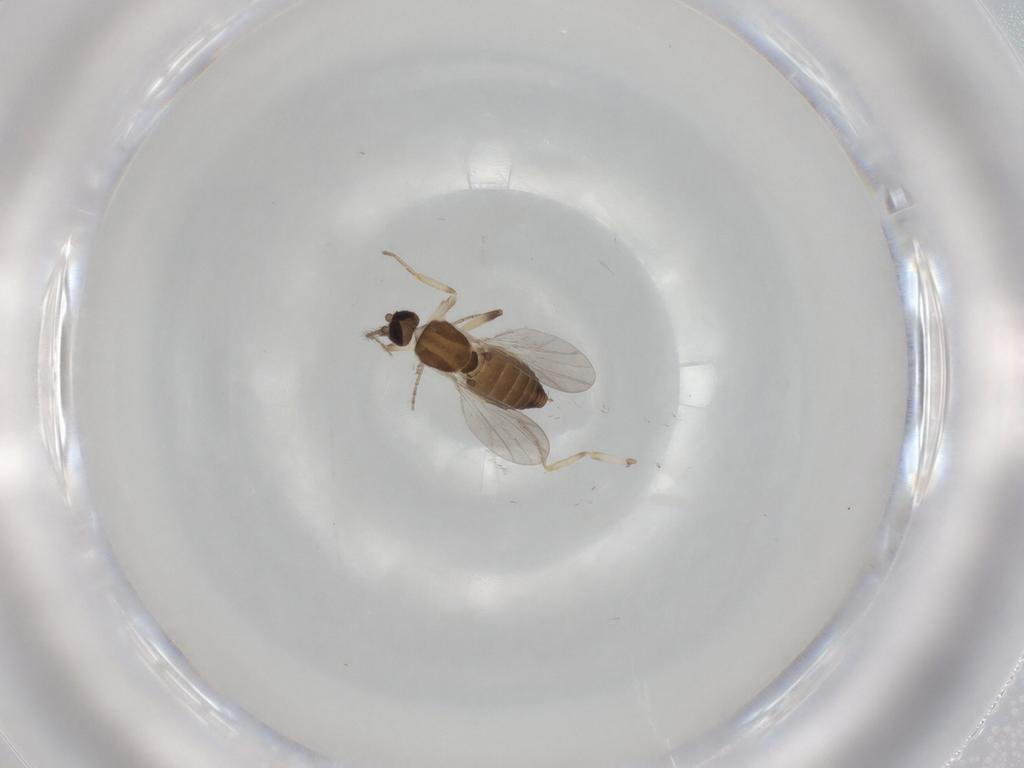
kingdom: Animalia
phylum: Arthropoda
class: Insecta
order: Diptera
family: Ceratopogonidae
